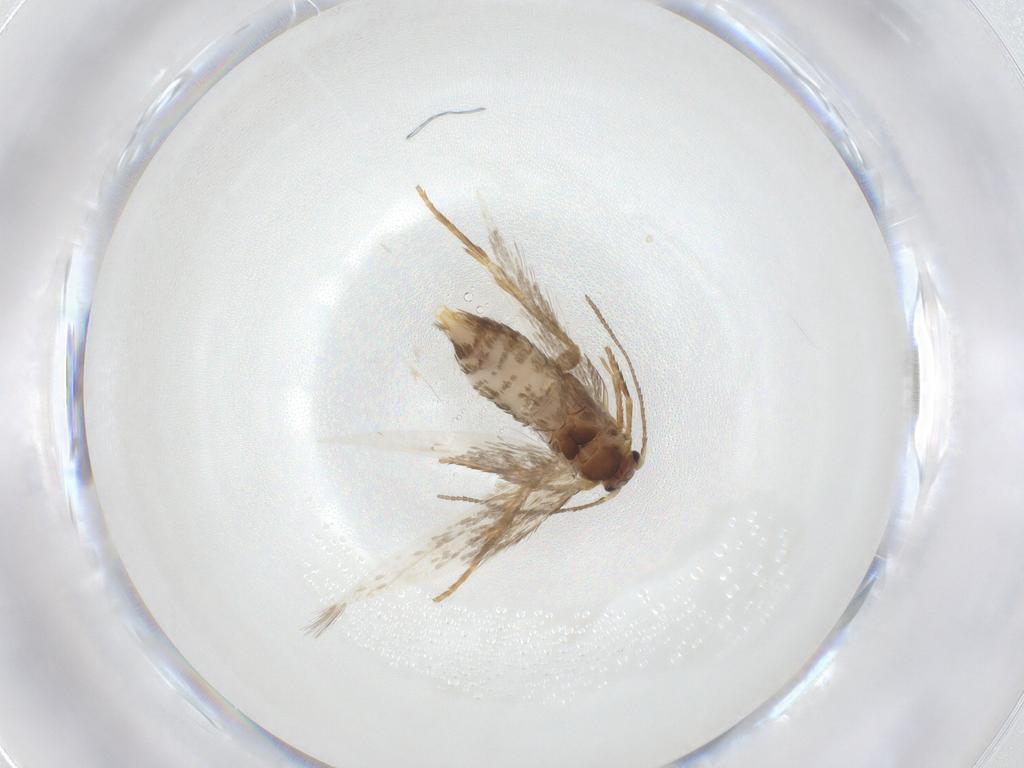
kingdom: Animalia
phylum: Arthropoda
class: Insecta
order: Lepidoptera
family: Nepticulidae
